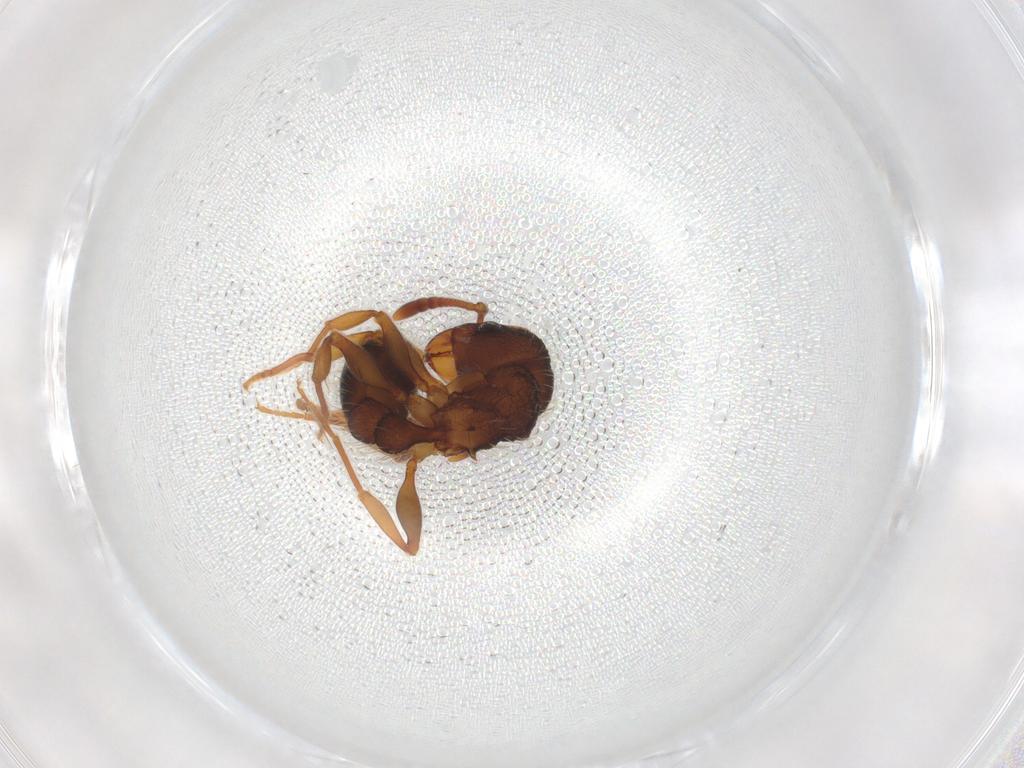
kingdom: Animalia
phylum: Arthropoda
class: Insecta
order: Hymenoptera
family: Formicidae
